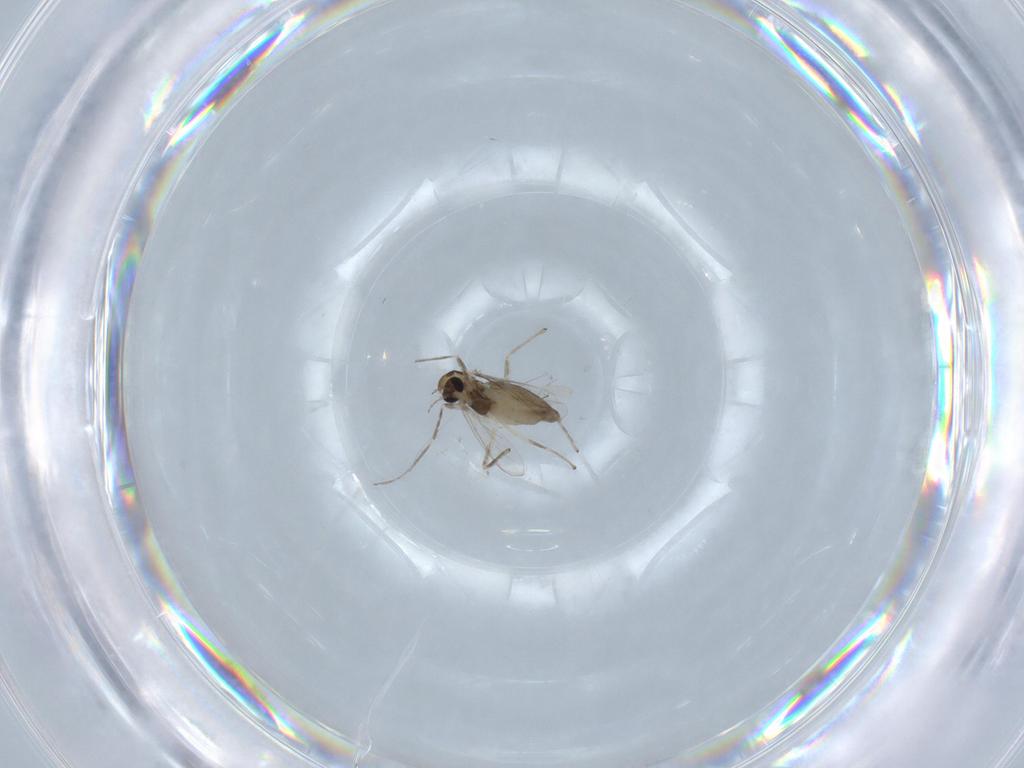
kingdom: Animalia
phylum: Arthropoda
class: Insecta
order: Diptera
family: Chironomidae
